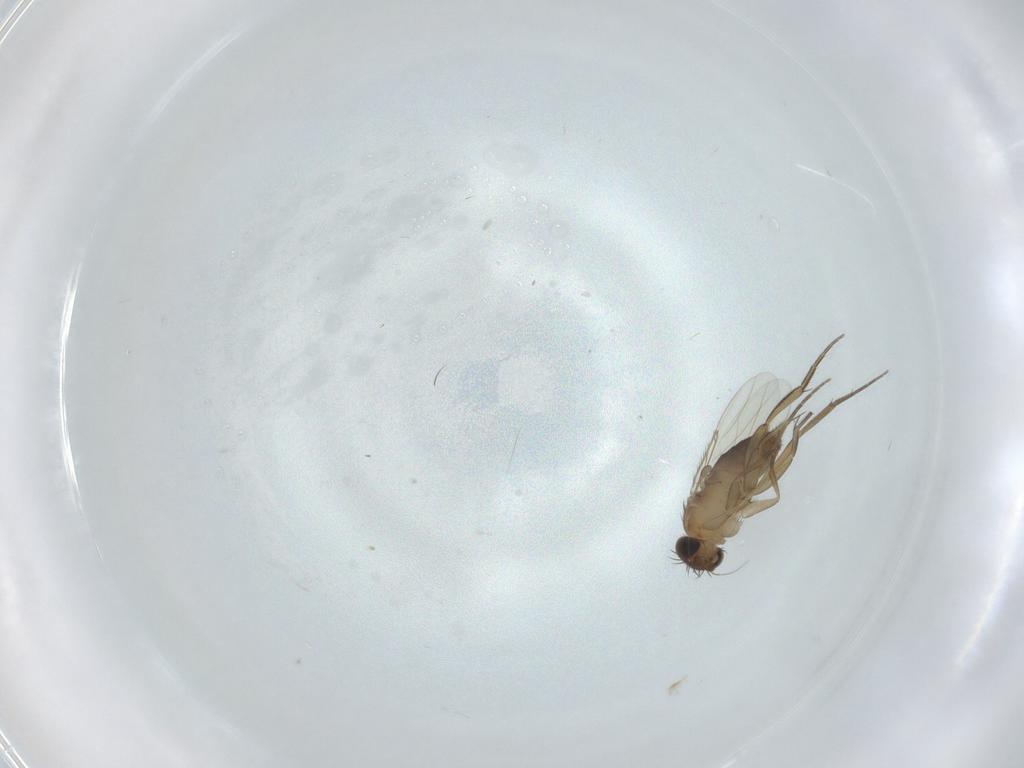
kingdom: Animalia
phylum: Arthropoda
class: Insecta
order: Diptera
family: Phoridae
